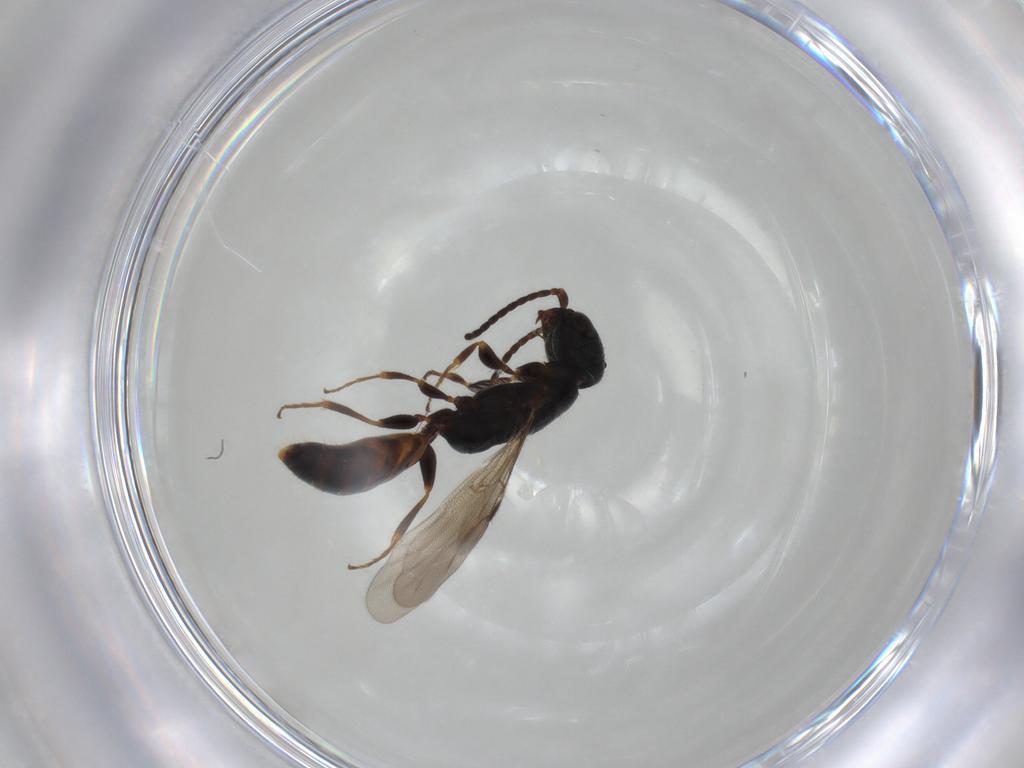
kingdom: Animalia
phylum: Arthropoda
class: Insecta
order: Hymenoptera
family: Bethylidae
